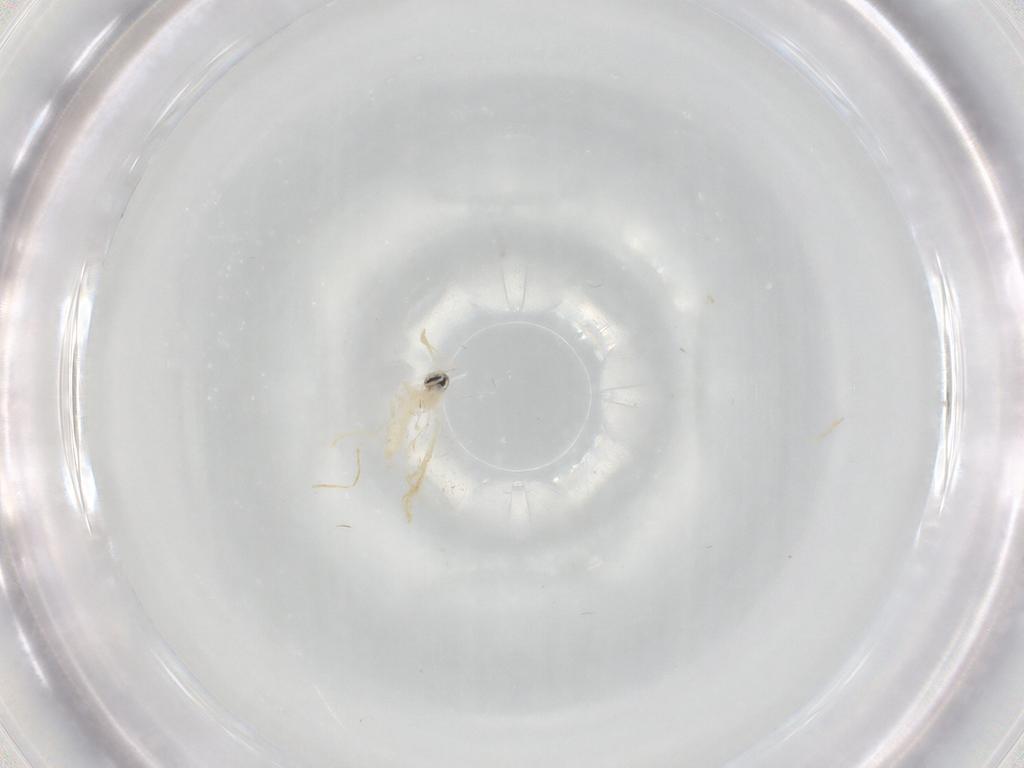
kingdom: Animalia
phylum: Arthropoda
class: Insecta
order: Diptera
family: Cecidomyiidae
